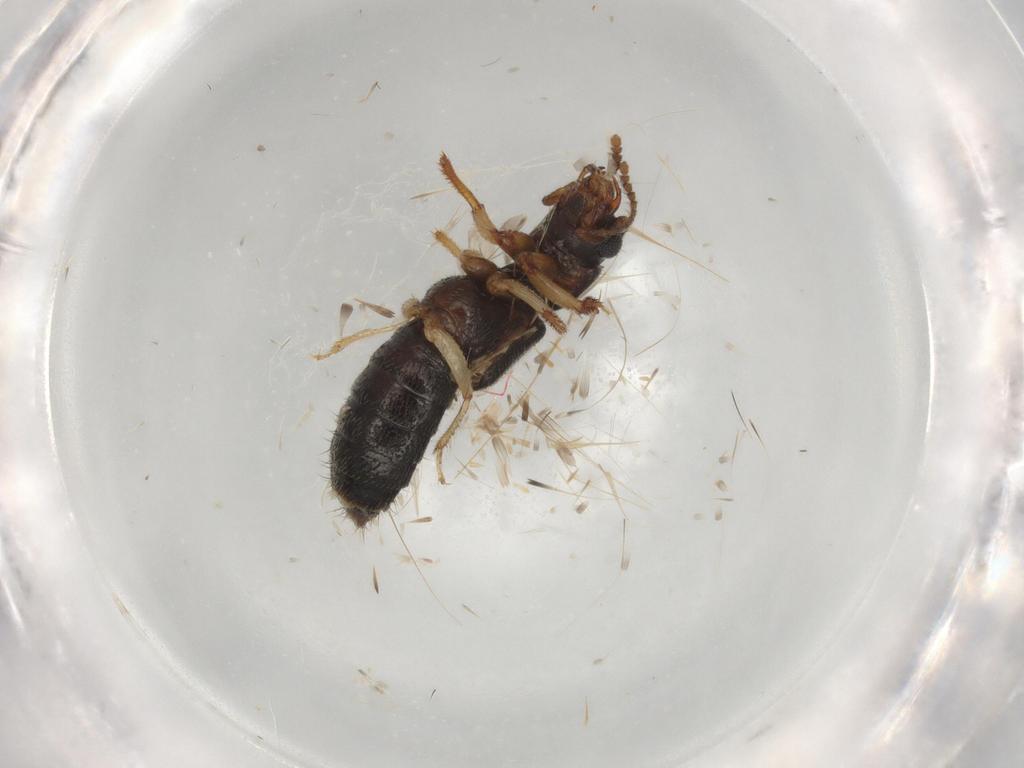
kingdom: Animalia
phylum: Arthropoda
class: Insecta
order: Coleoptera
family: Staphylinidae
